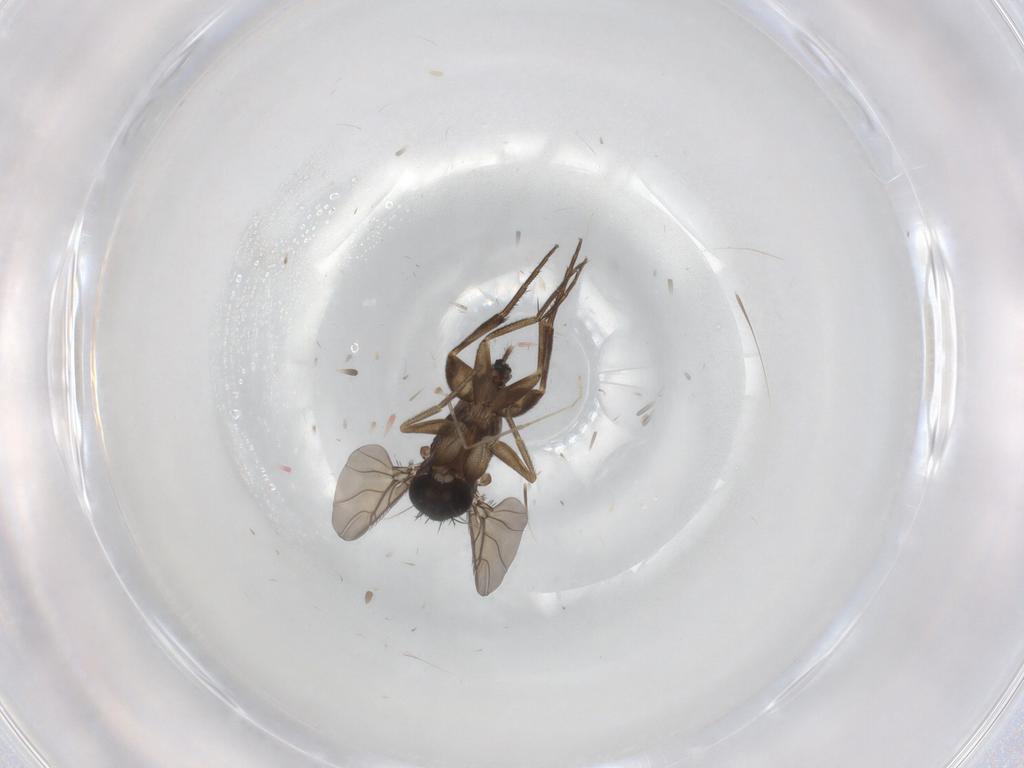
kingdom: Animalia
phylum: Arthropoda
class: Insecta
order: Diptera
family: Phoridae
